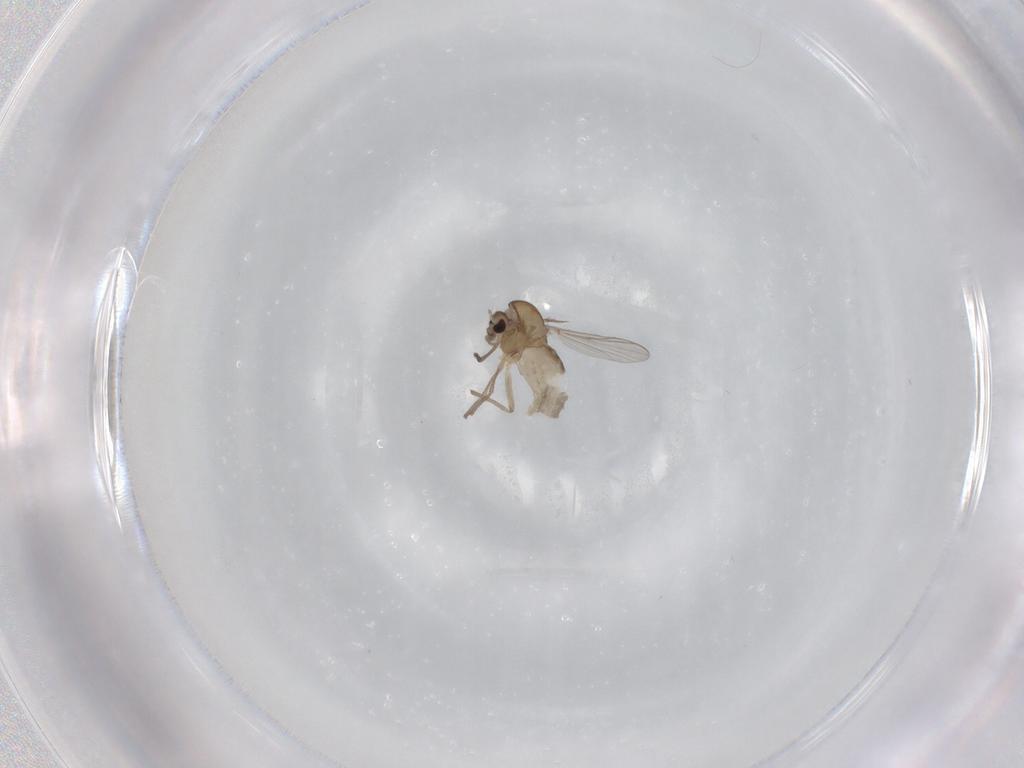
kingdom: Animalia
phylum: Arthropoda
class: Insecta
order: Diptera
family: Chironomidae
